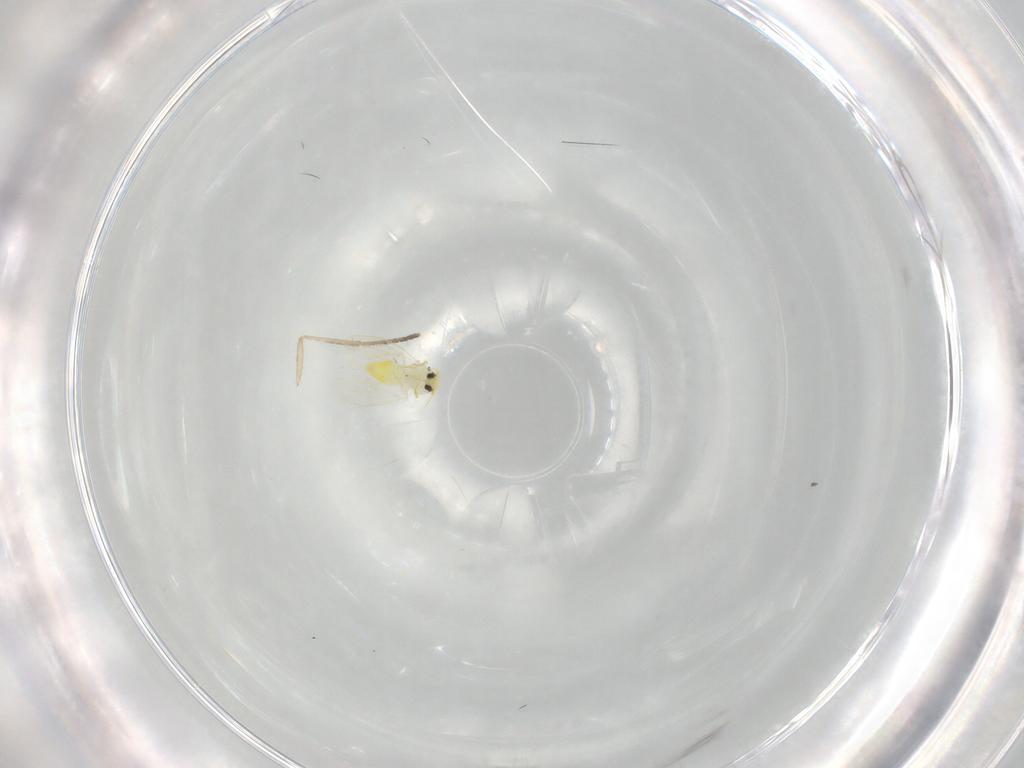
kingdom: Animalia
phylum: Arthropoda
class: Insecta
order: Hemiptera
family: Aleyrodidae
